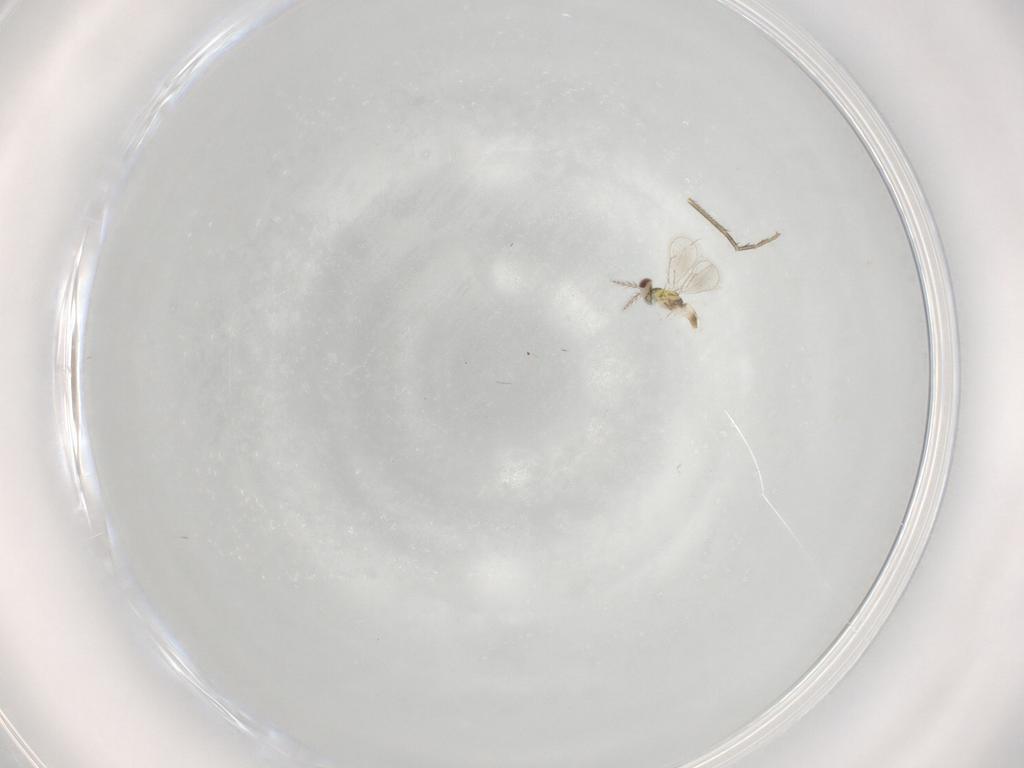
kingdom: Animalia
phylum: Arthropoda
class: Insecta
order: Hymenoptera
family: Eulophidae
